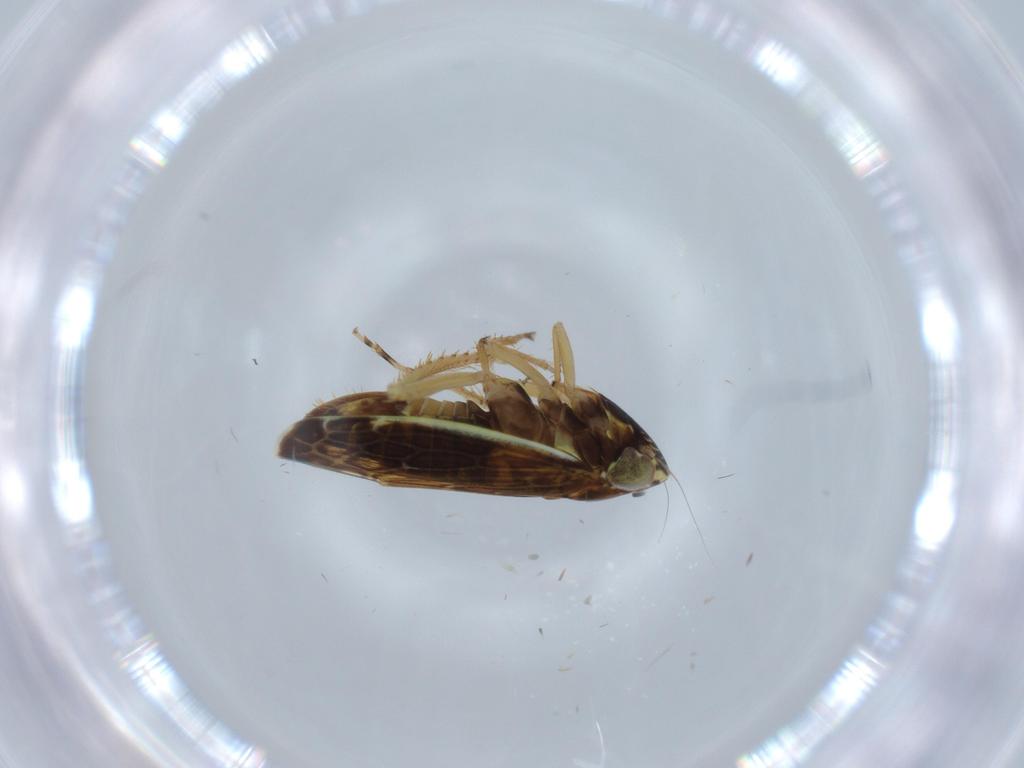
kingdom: Animalia
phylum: Arthropoda
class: Insecta
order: Hemiptera
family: Cicadellidae
